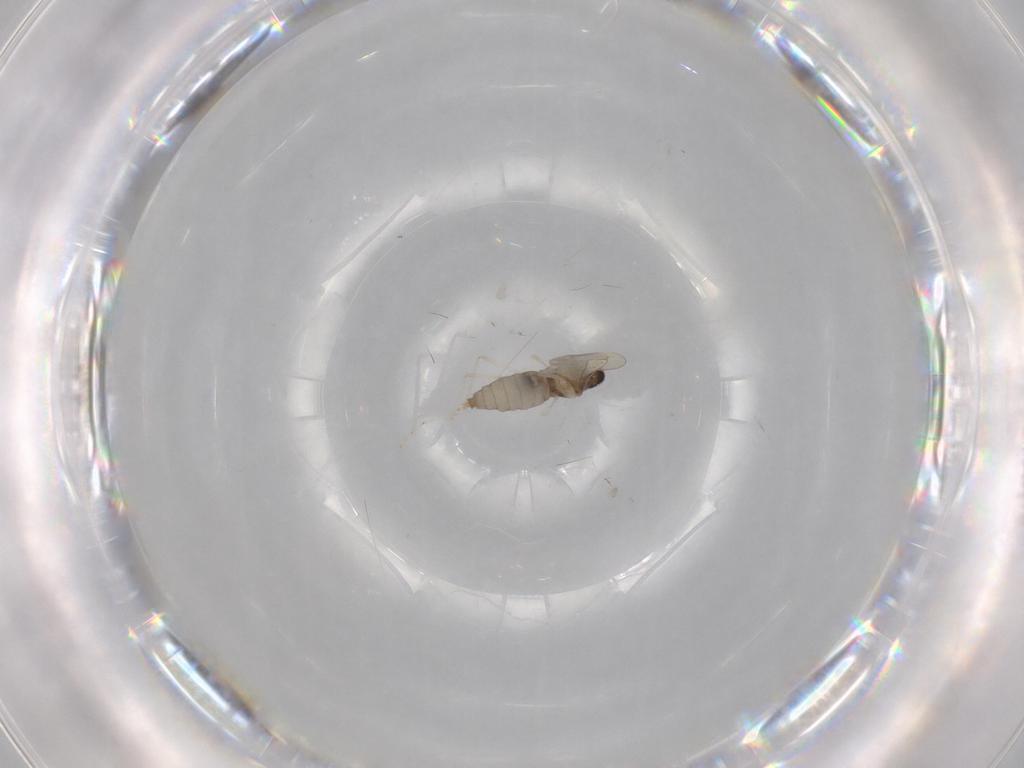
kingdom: Animalia
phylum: Arthropoda
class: Insecta
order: Diptera
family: Cecidomyiidae
